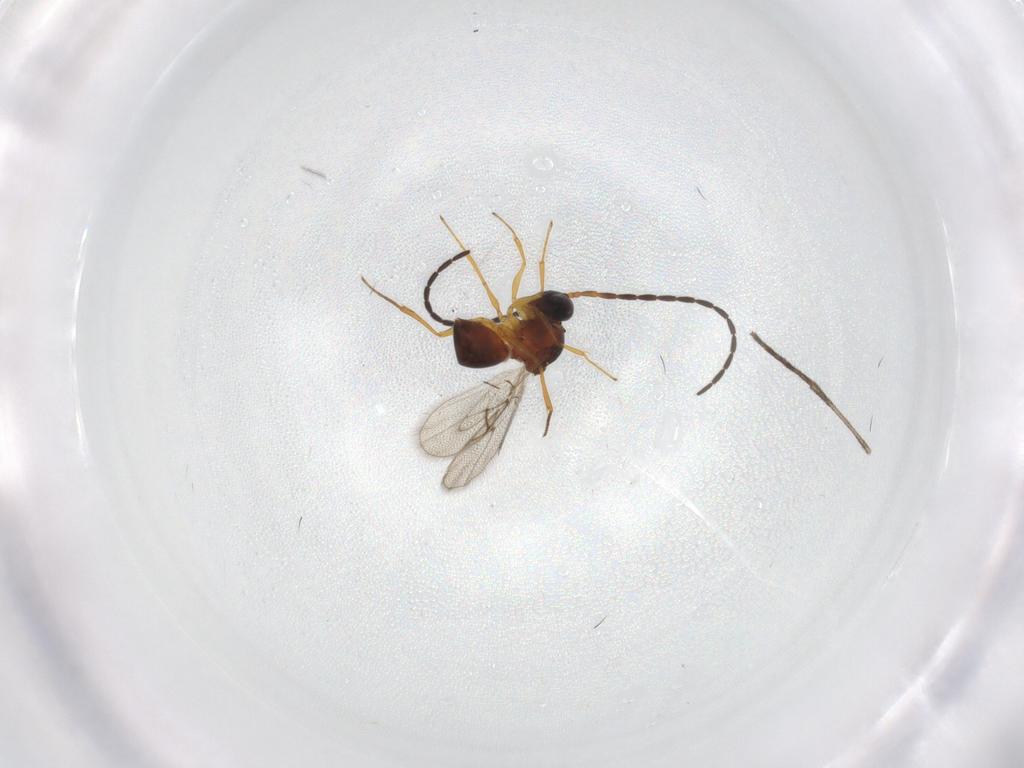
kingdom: Animalia
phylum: Arthropoda
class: Insecta
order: Hymenoptera
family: Figitidae
